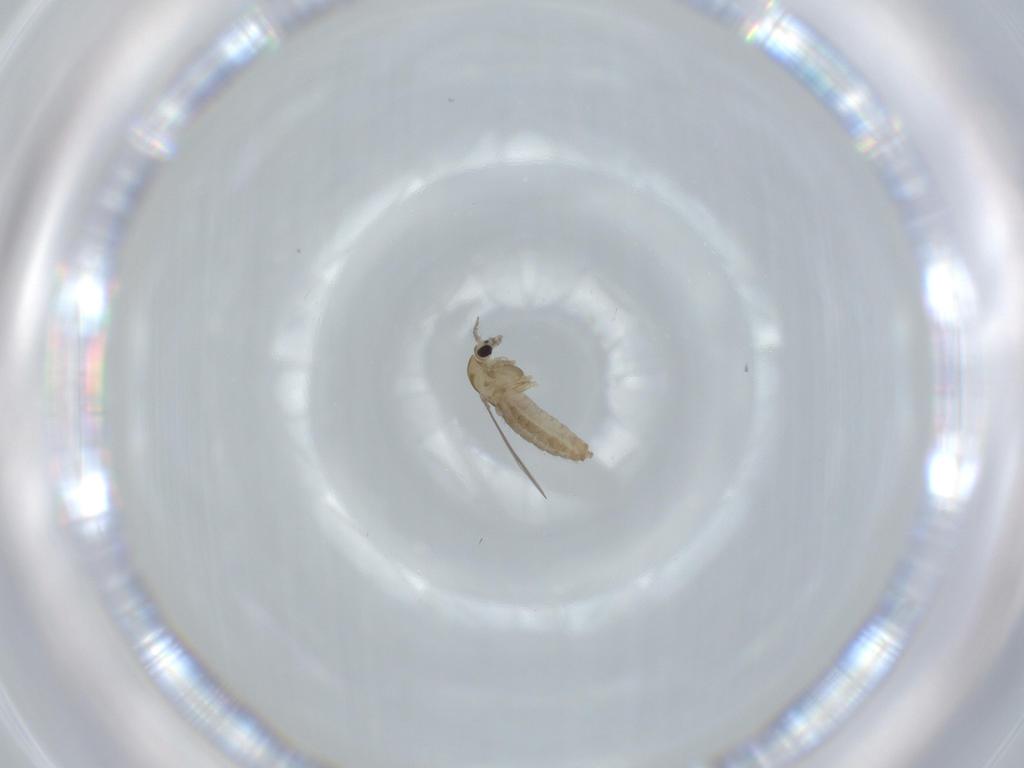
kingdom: Animalia
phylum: Arthropoda
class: Insecta
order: Diptera
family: Chironomidae
